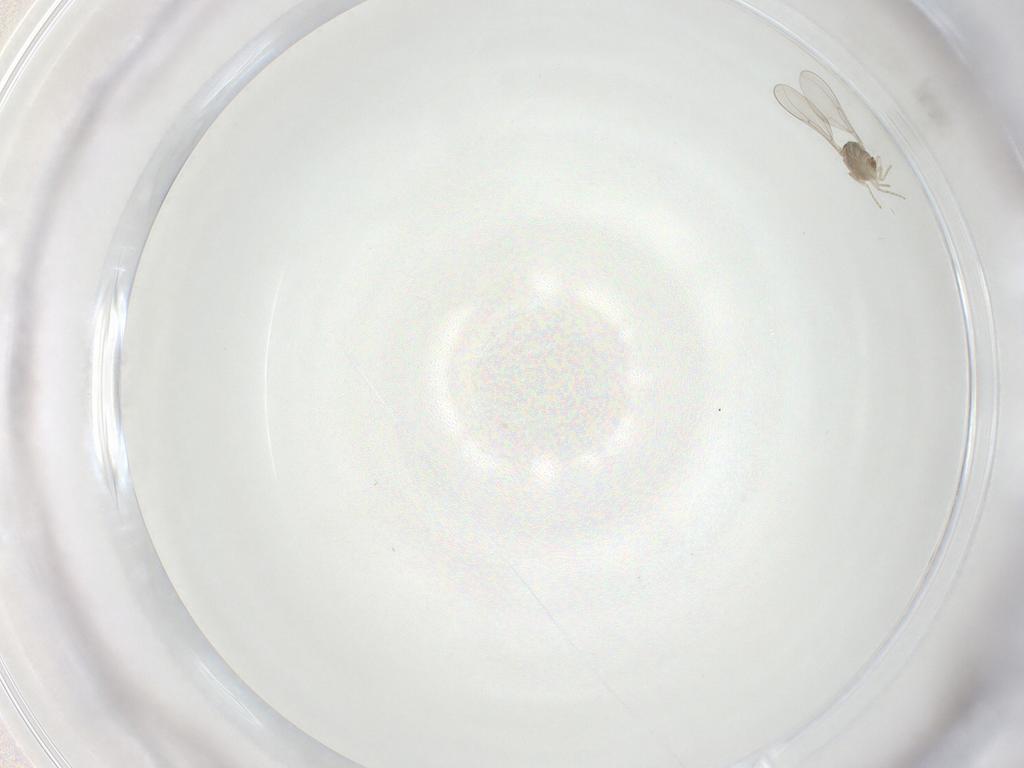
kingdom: Animalia
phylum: Arthropoda
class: Insecta
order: Diptera
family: Cecidomyiidae
